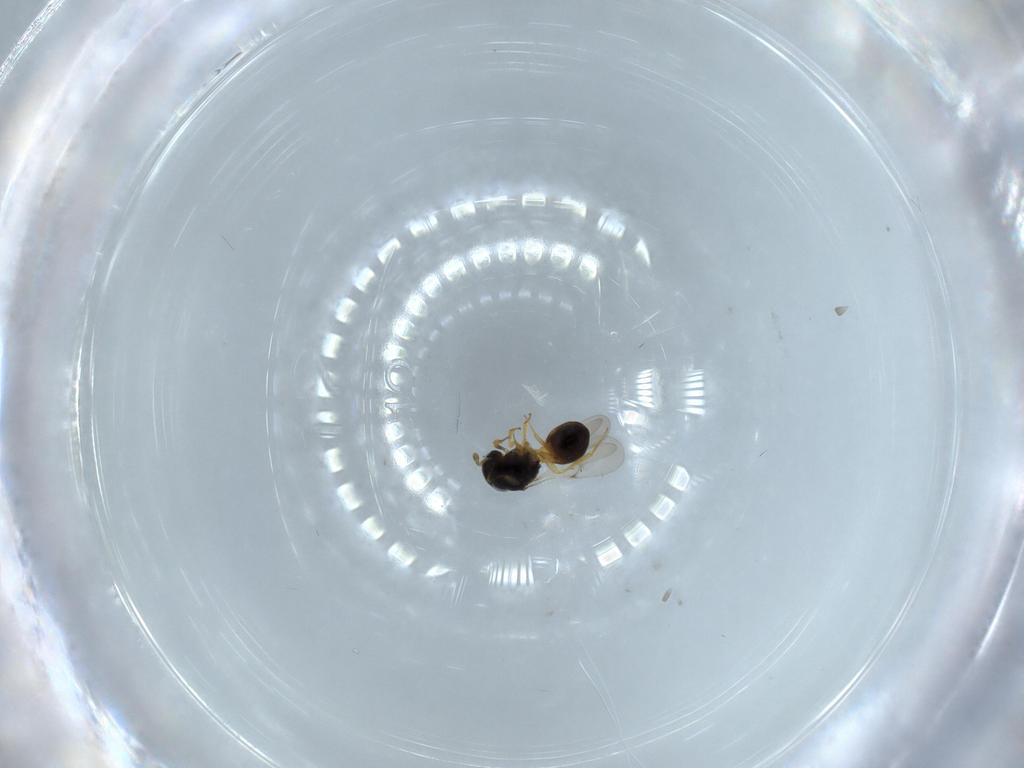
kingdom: Animalia
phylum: Arthropoda
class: Insecta
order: Hymenoptera
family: Scelionidae
